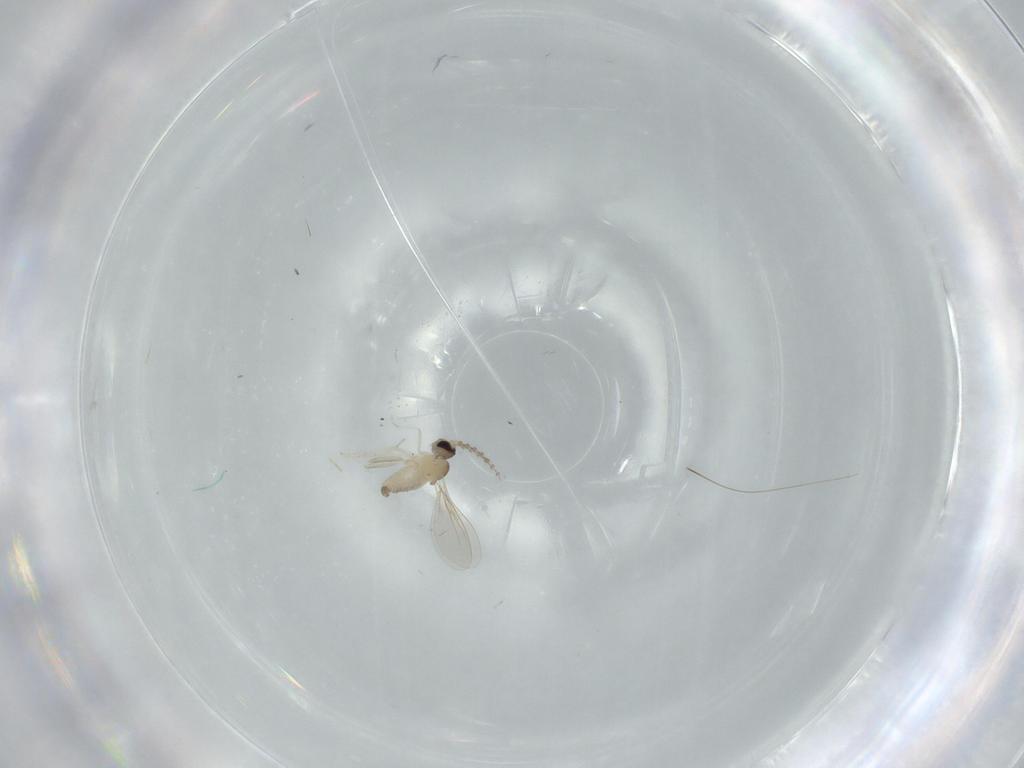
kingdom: Animalia
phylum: Arthropoda
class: Insecta
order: Diptera
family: Cecidomyiidae
